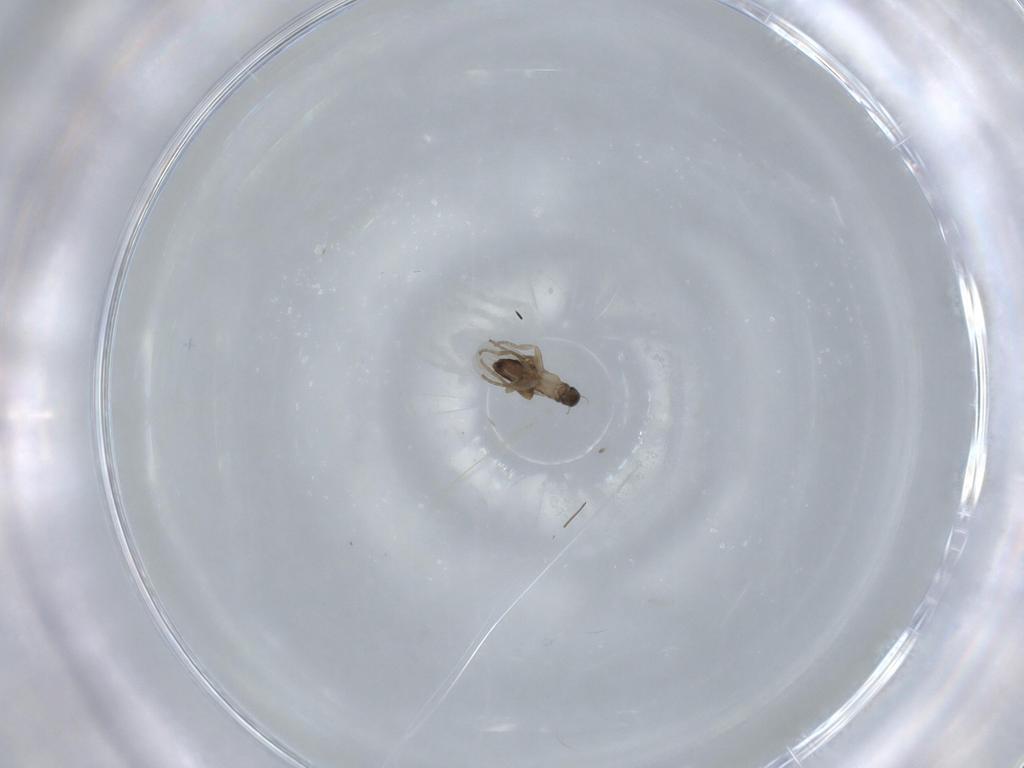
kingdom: Animalia
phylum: Arthropoda
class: Insecta
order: Diptera
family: Phoridae
